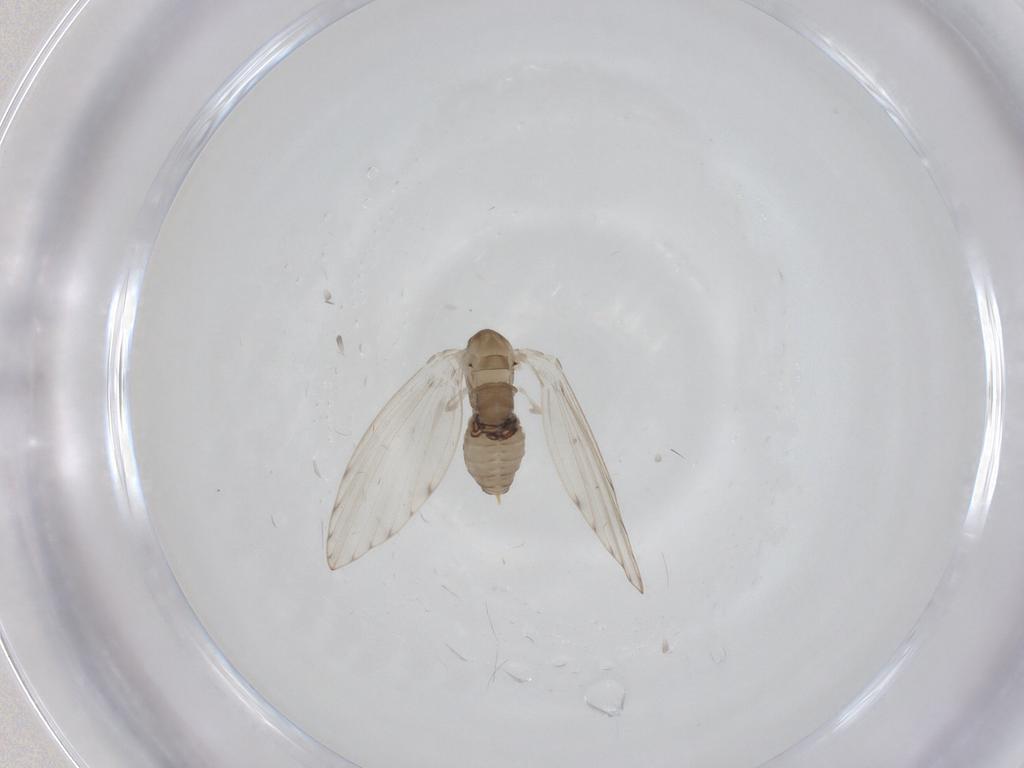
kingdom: Animalia
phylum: Arthropoda
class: Insecta
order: Diptera
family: Psychodidae
